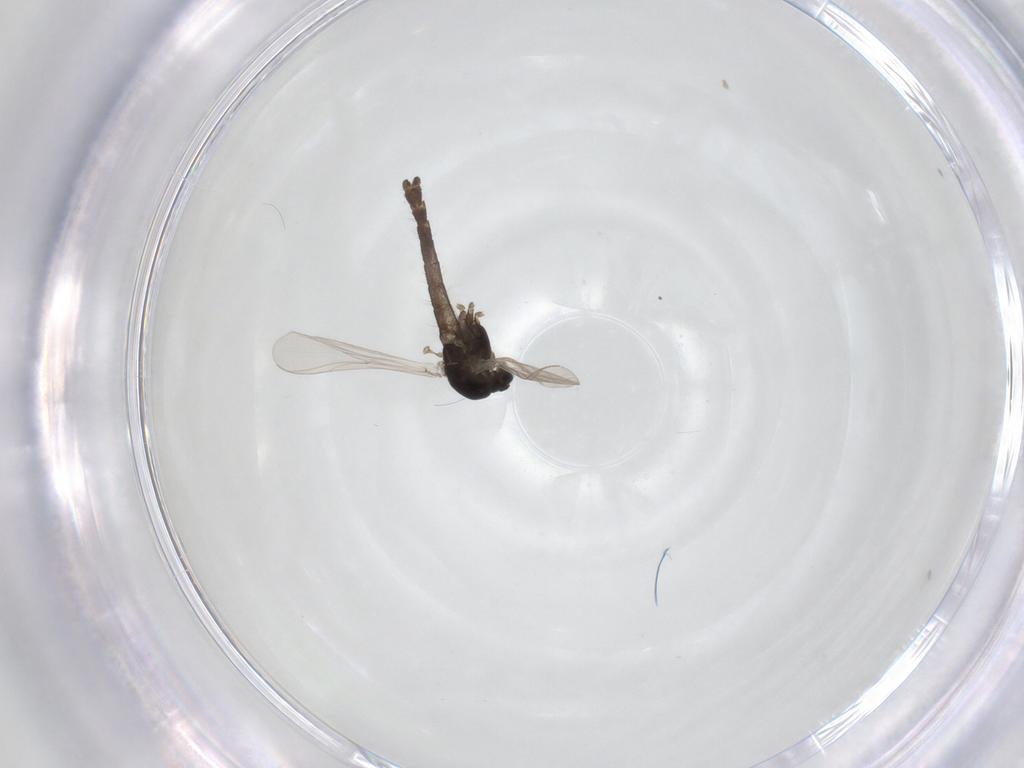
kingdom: Animalia
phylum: Arthropoda
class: Insecta
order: Diptera
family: Chironomidae
